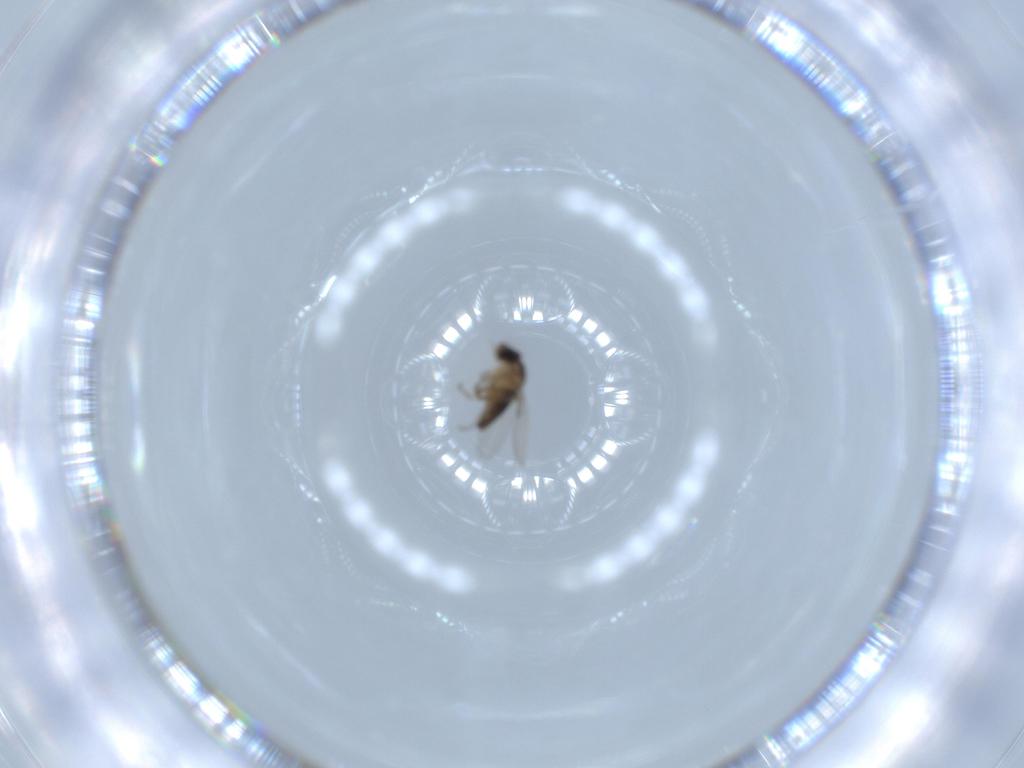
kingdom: Animalia
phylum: Arthropoda
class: Insecta
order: Diptera
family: Phoridae
